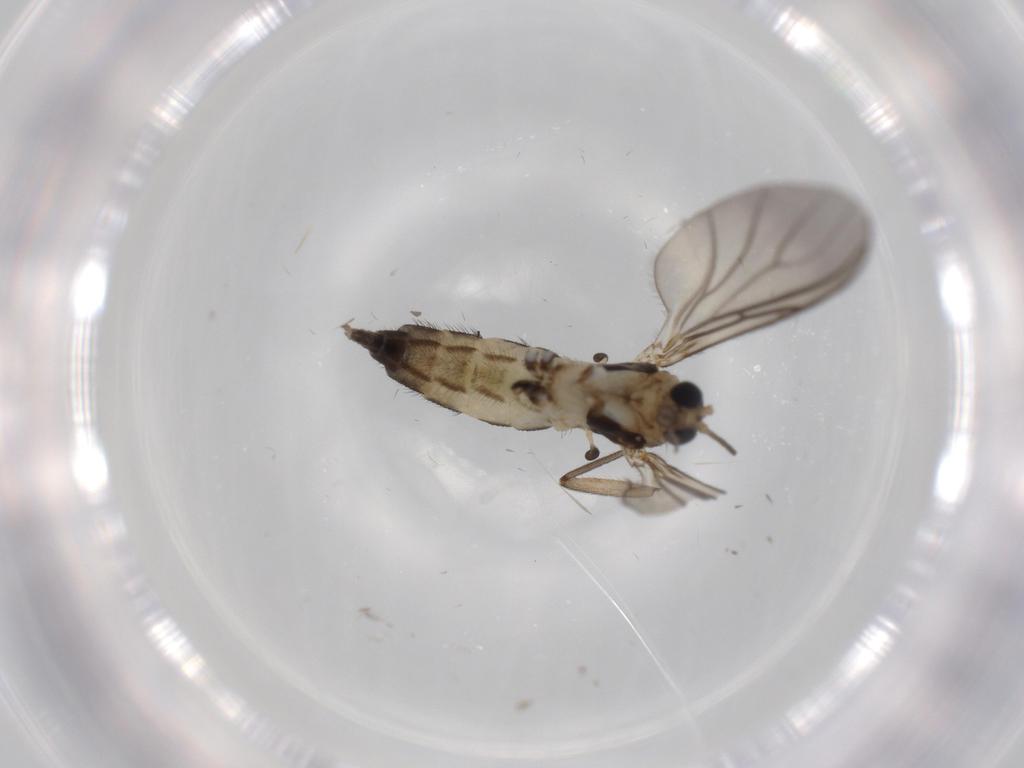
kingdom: Animalia
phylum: Arthropoda
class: Insecta
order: Diptera
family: Sciaridae
